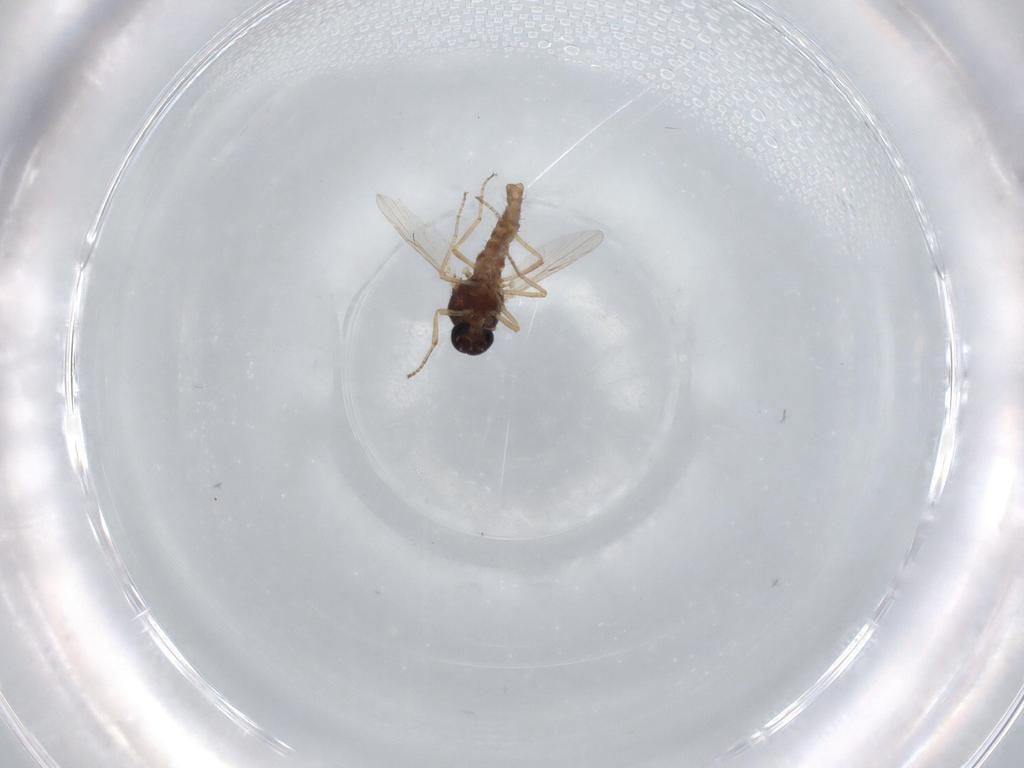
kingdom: Animalia
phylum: Arthropoda
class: Insecta
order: Diptera
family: Ceratopogonidae
